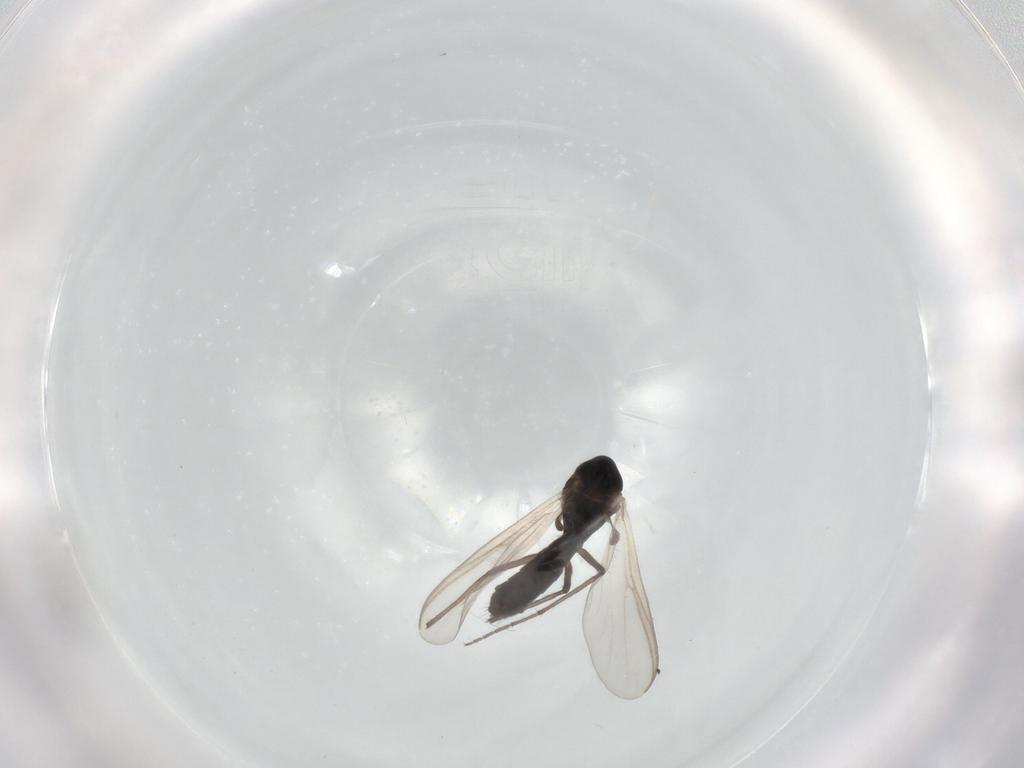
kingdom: Animalia
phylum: Arthropoda
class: Insecta
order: Diptera
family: Chironomidae
